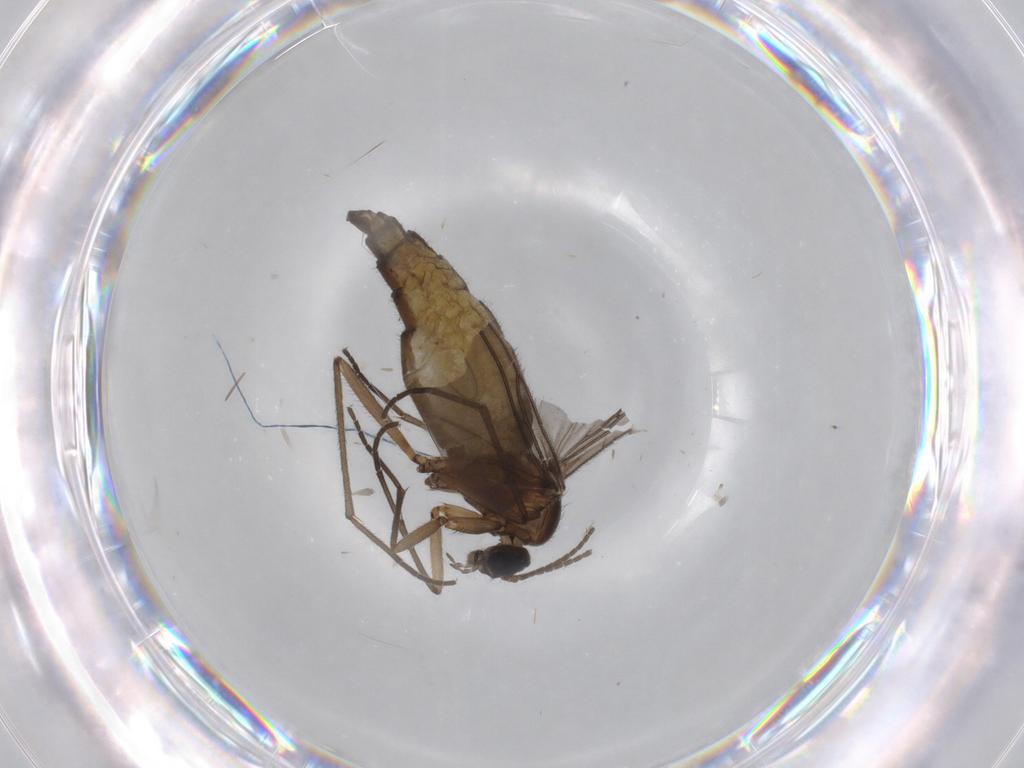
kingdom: Animalia
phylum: Arthropoda
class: Insecta
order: Diptera
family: Sciaridae
